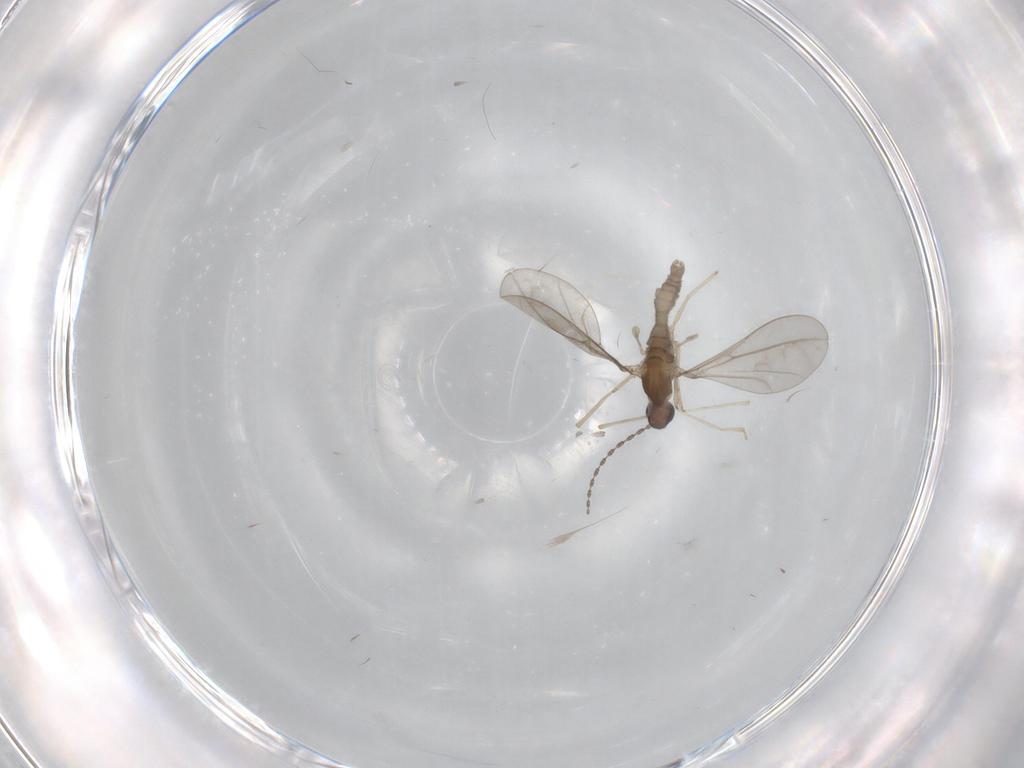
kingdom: Animalia
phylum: Arthropoda
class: Insecta
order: Diptera
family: Cecidomyiidae
